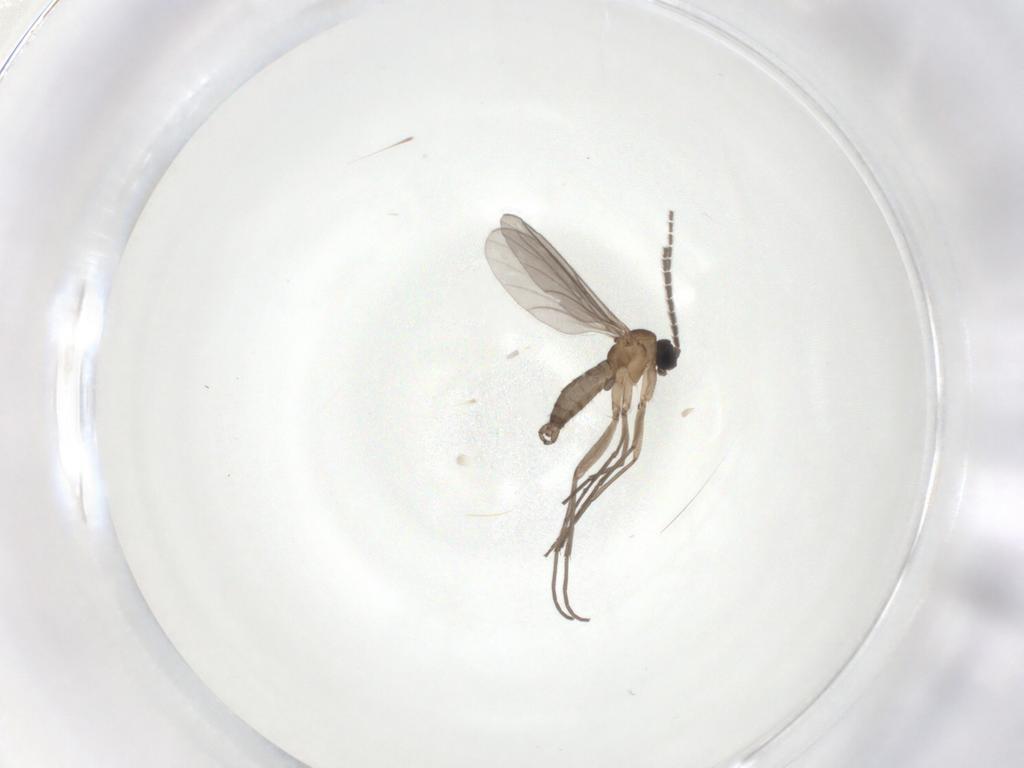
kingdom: Animalia
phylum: Arthropoda
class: Insecta
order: Diptera
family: Sciaridae
